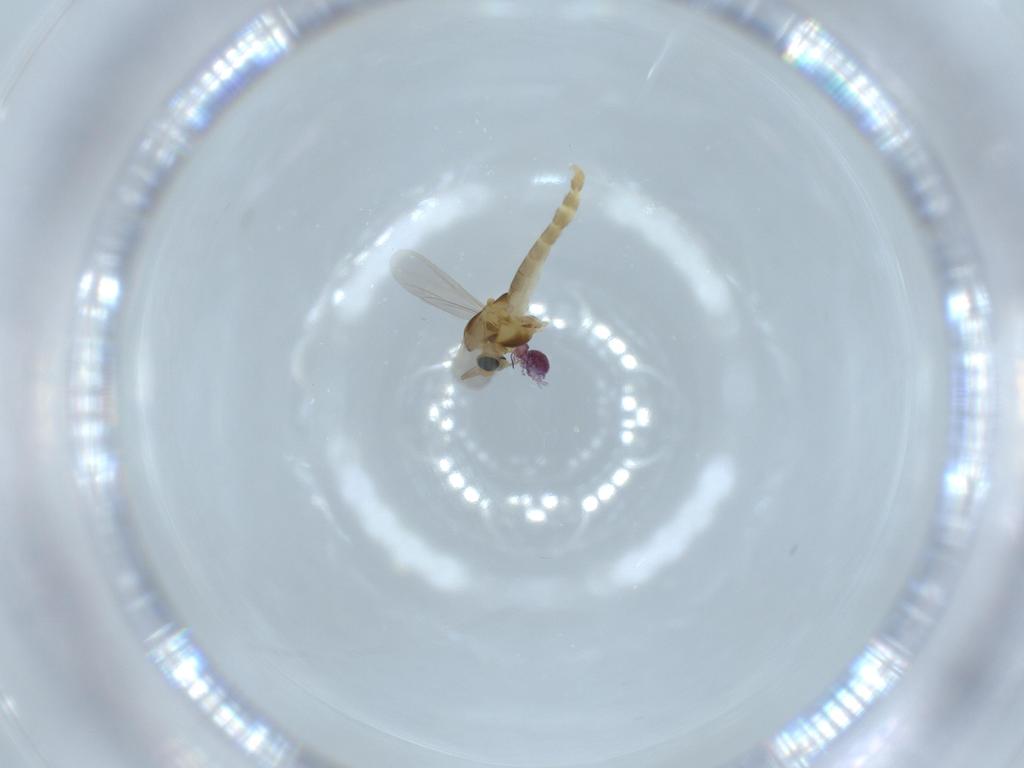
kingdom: Animalia
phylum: Arthropoda
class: Insecta
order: Diptera
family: Chironomidae
